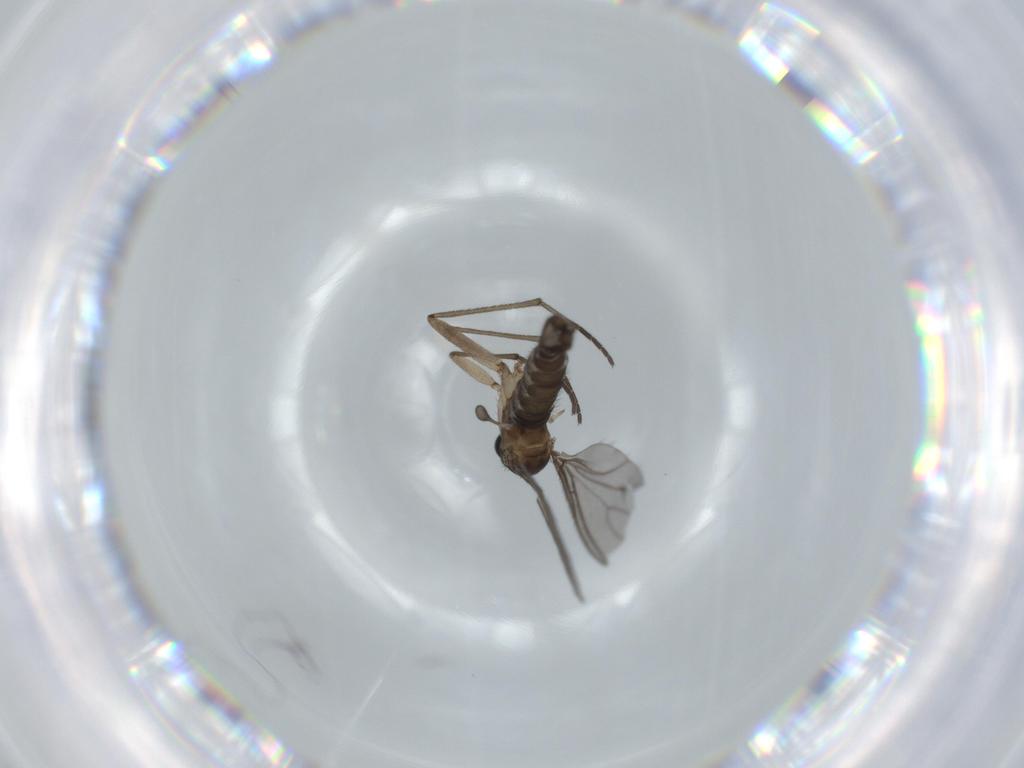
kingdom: Animalia
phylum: Arthropoda
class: Insecta
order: Diptera
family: Sciaridae
